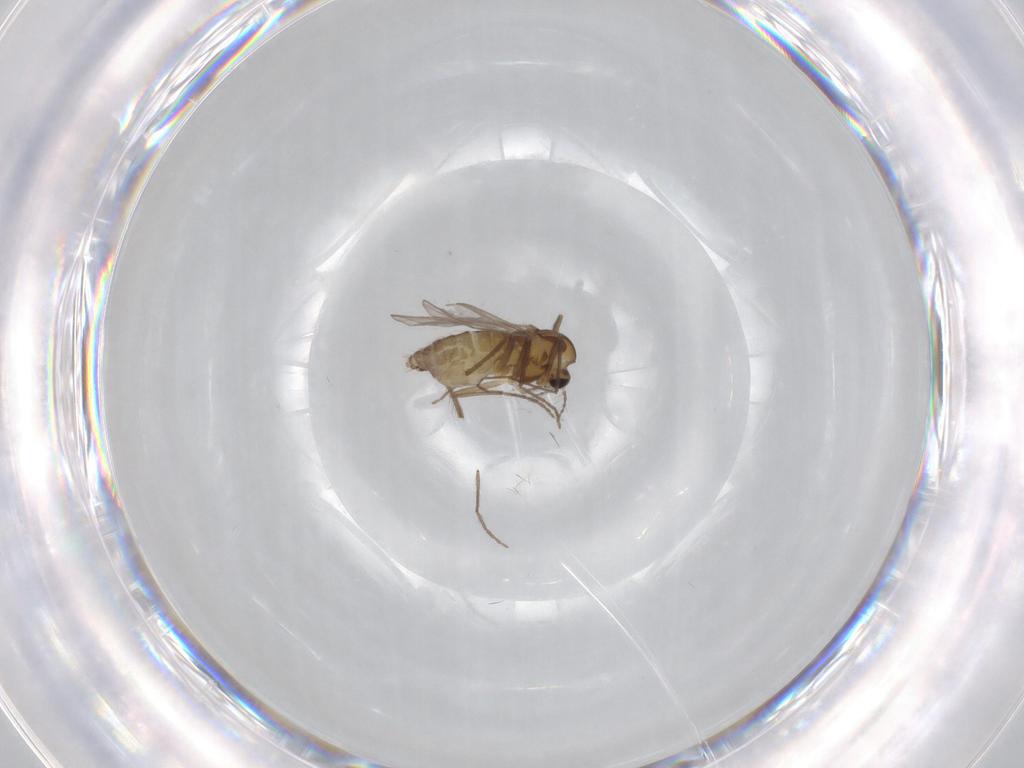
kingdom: Animalia
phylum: Arthropoda
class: Insecta
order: Diptera
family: Chironomidae
